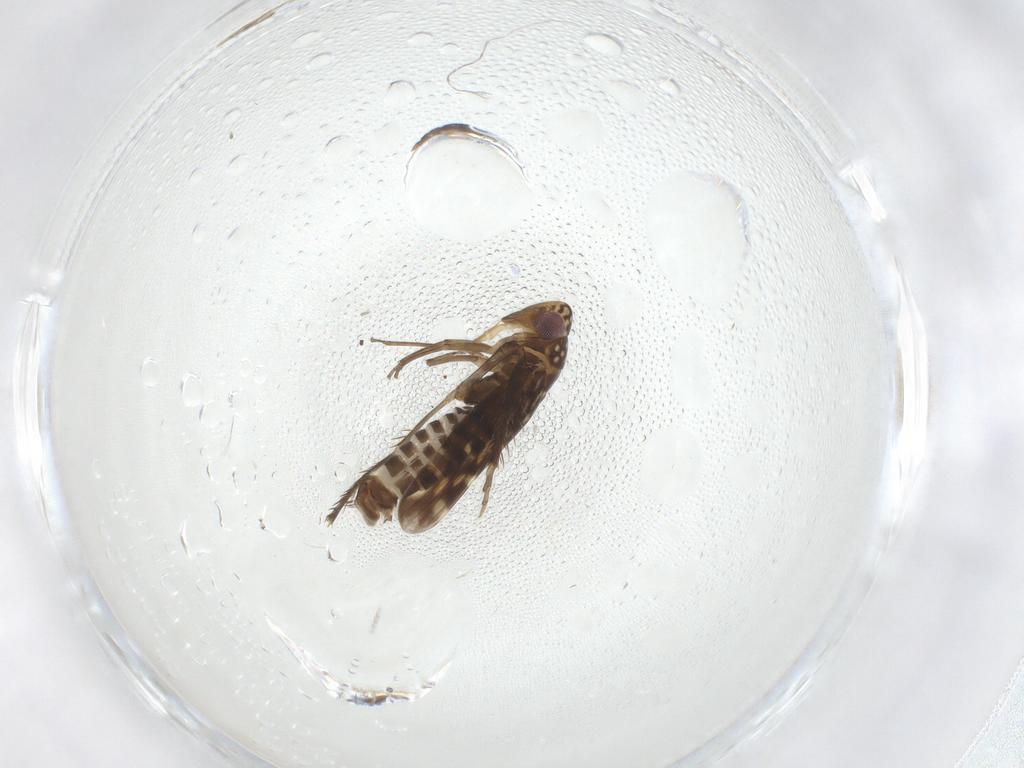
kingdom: Animalia
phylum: Arthropoda
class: Insecta
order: Hemiptera
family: Cicadellidae
